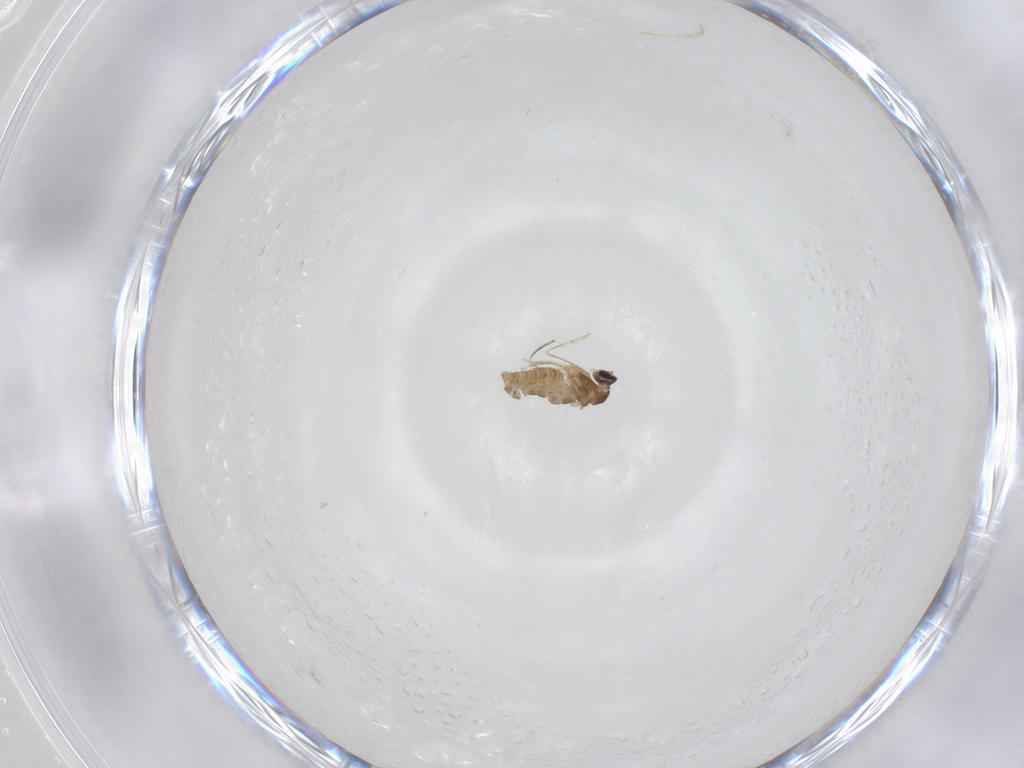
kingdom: Animalia
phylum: Arthropoda
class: Insecta
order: Diptera
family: Cecidomyiidae
